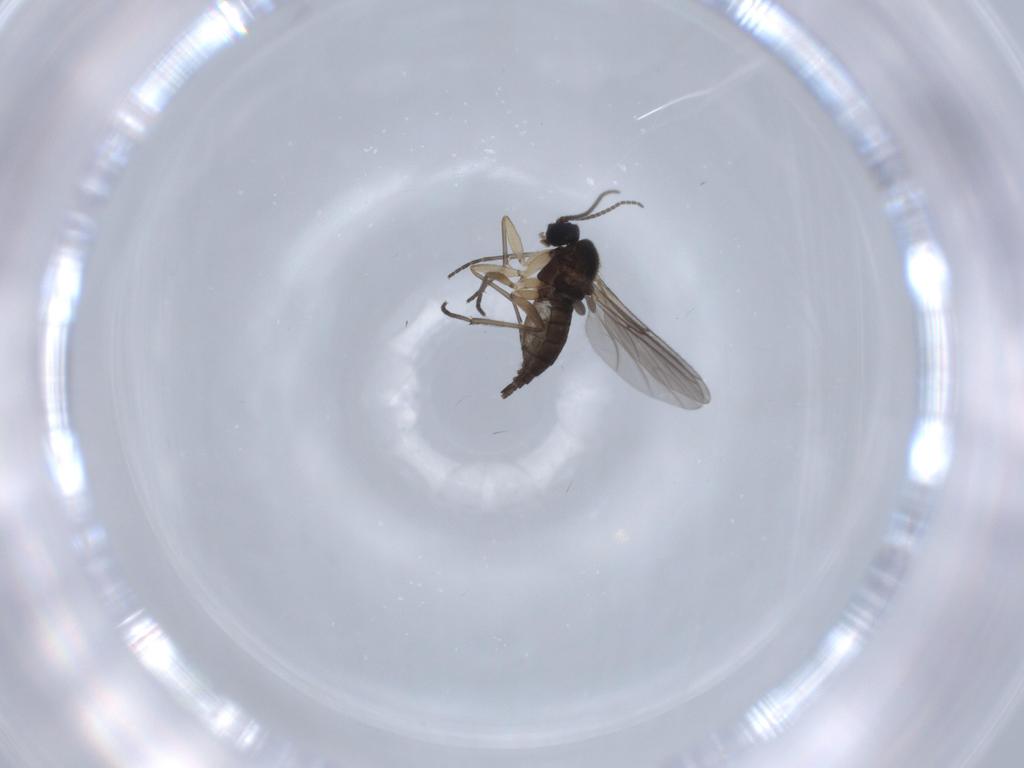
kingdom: Animalia
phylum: Arthropoda
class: Insecta
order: Diptera
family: Sciaridae
